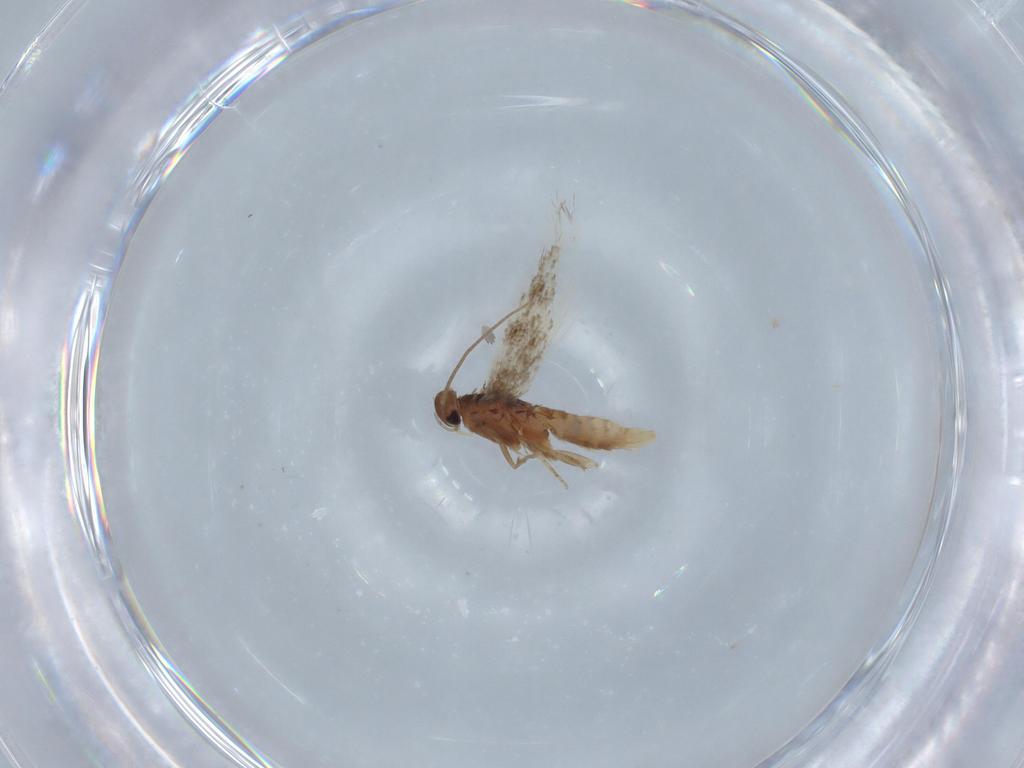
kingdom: Animalia
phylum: Arthropoda
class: Insecta
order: Lepidoptera
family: Elachistidae
